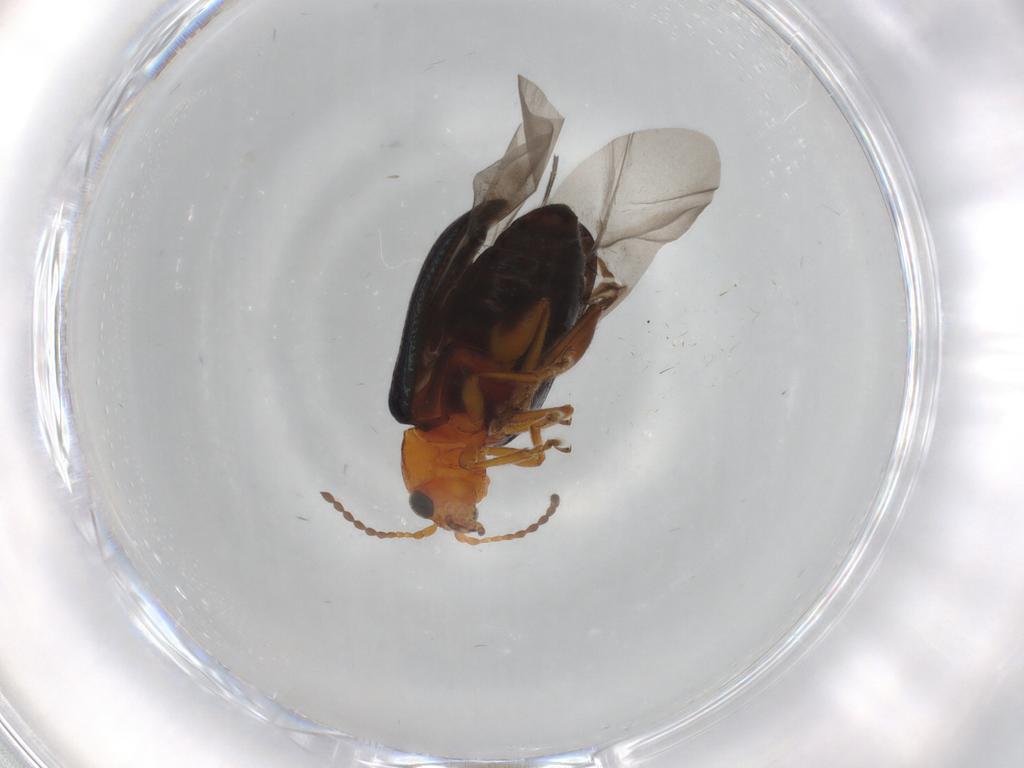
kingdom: Animalia
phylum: Arthropoda
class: Insecta
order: Coleoptera
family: Chrysomelidae
